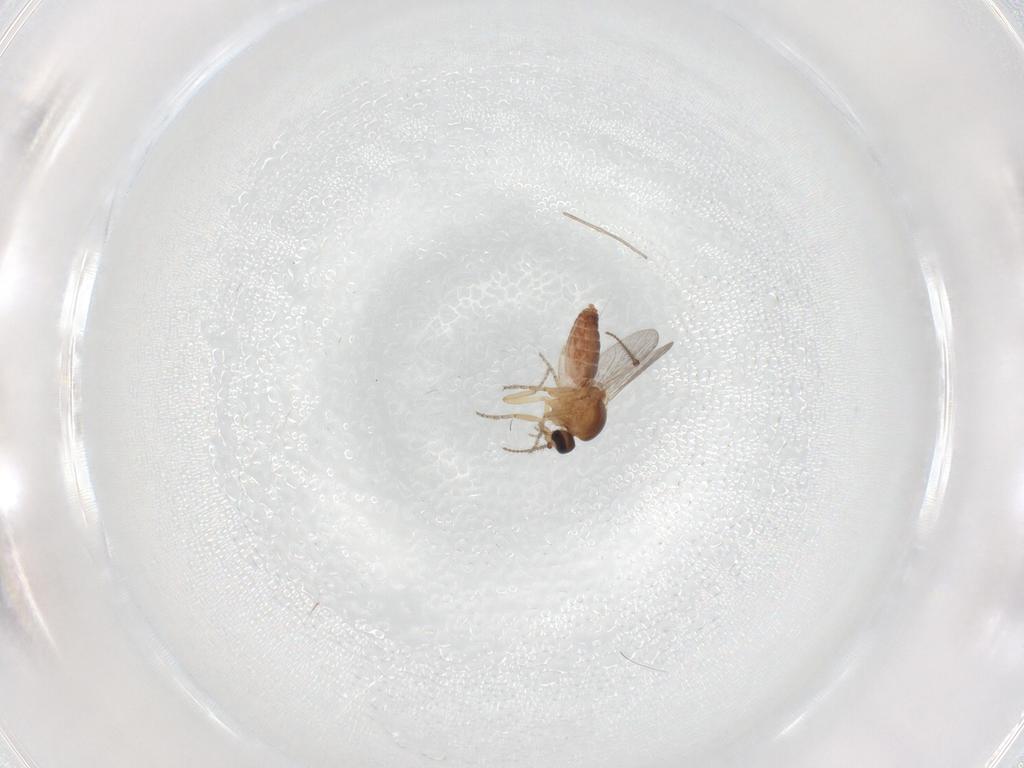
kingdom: Animalia
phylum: Arthropoda
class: Insecta
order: Diptera
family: Ceratopogonidae
